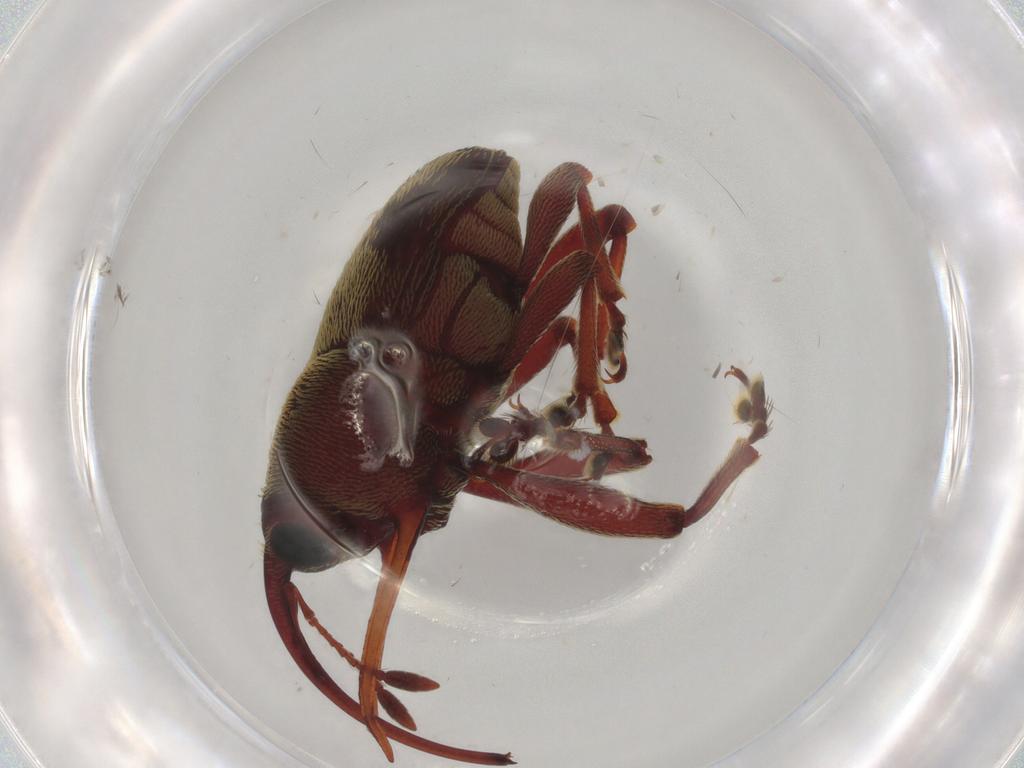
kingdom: Animalia
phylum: Arthropoda
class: Insecta
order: Coleoptera
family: Curculionidae
